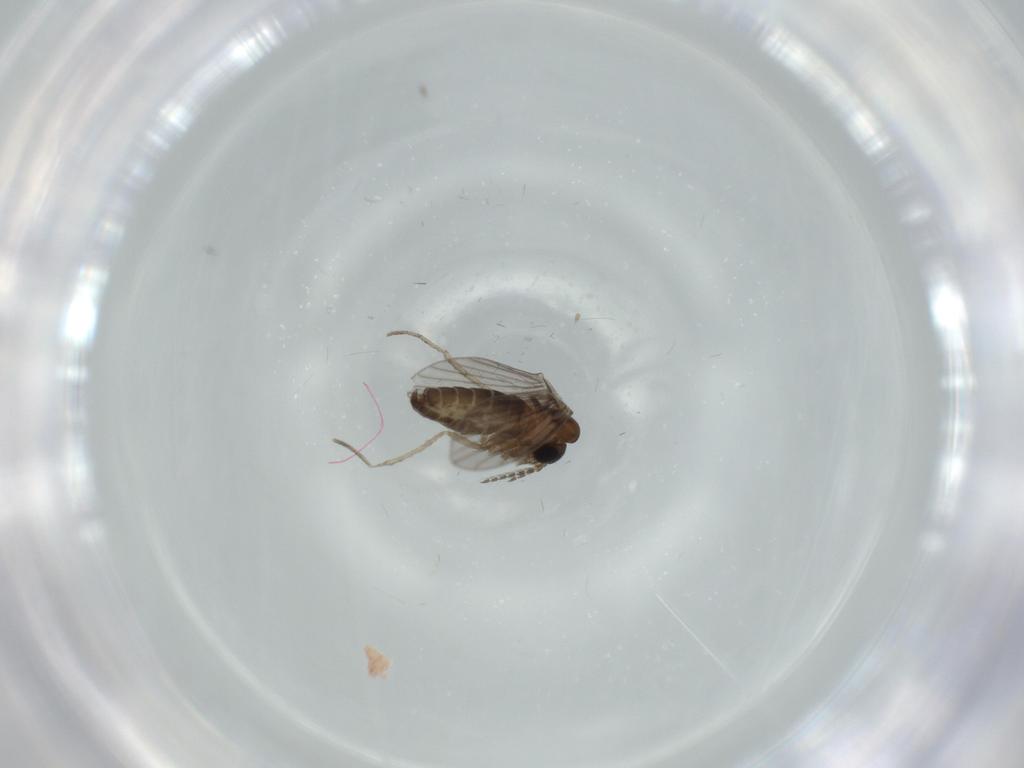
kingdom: Animalia
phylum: Arthropoda
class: Insecta
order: Diptera
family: Psychodidae
